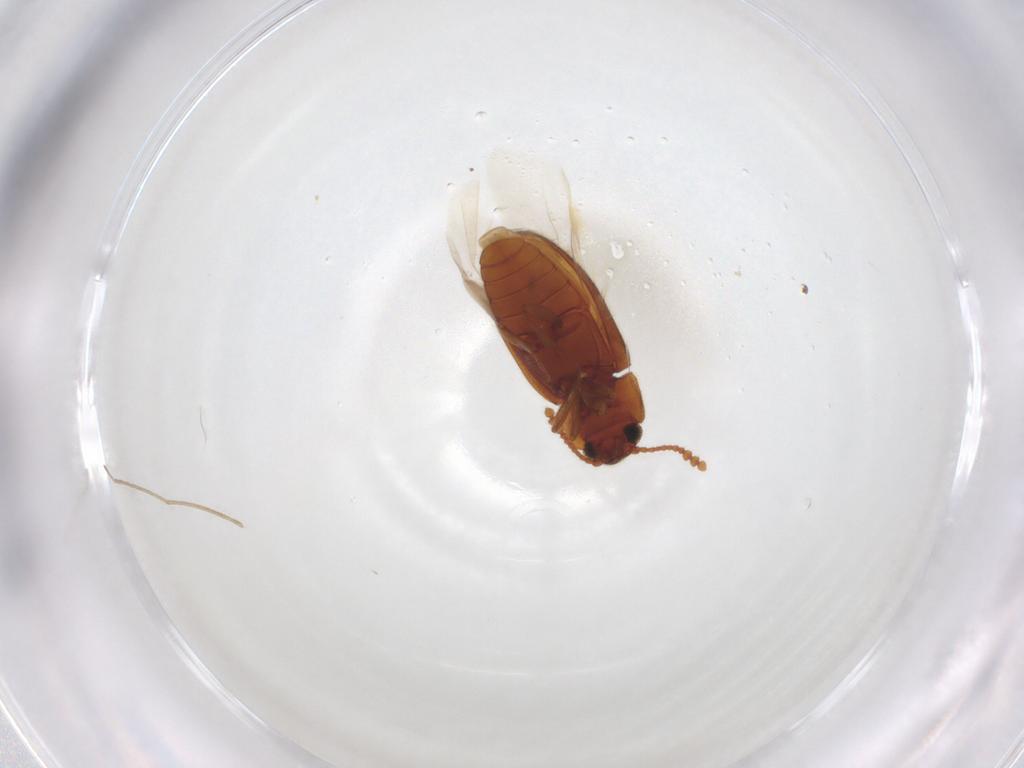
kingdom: Animalia
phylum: Arthropoda
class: Insecta
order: Coleoptera
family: Erotylidae
